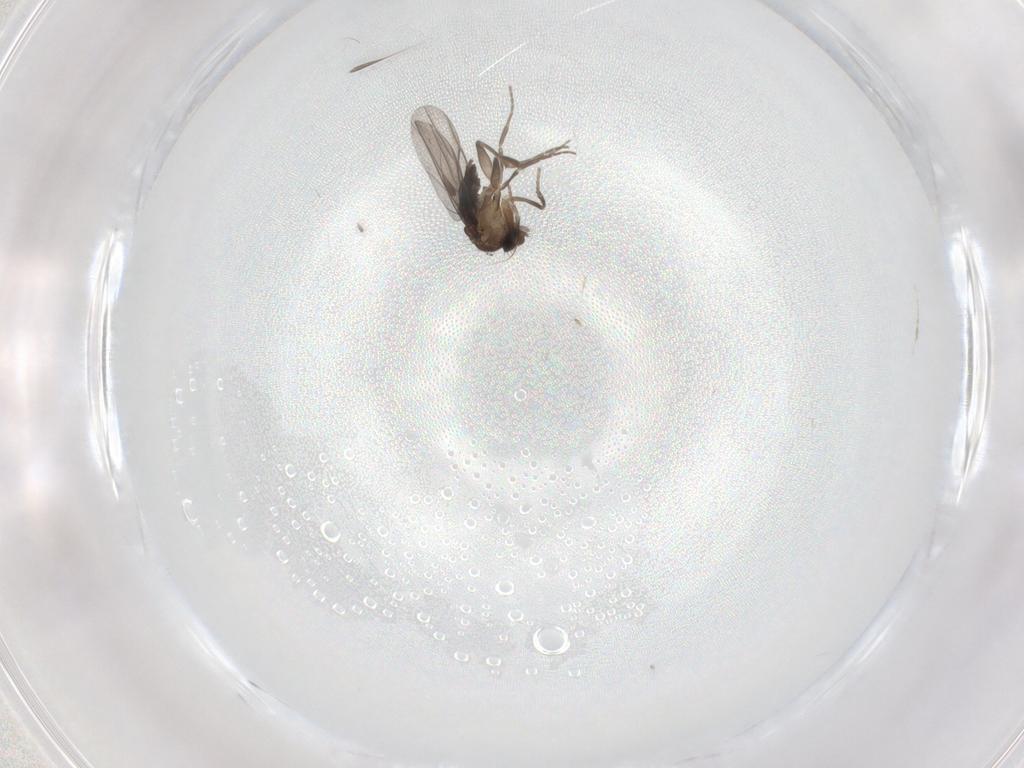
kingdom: Animalia
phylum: Arthropoda
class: Insecta
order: Diptera
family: Phoridae
